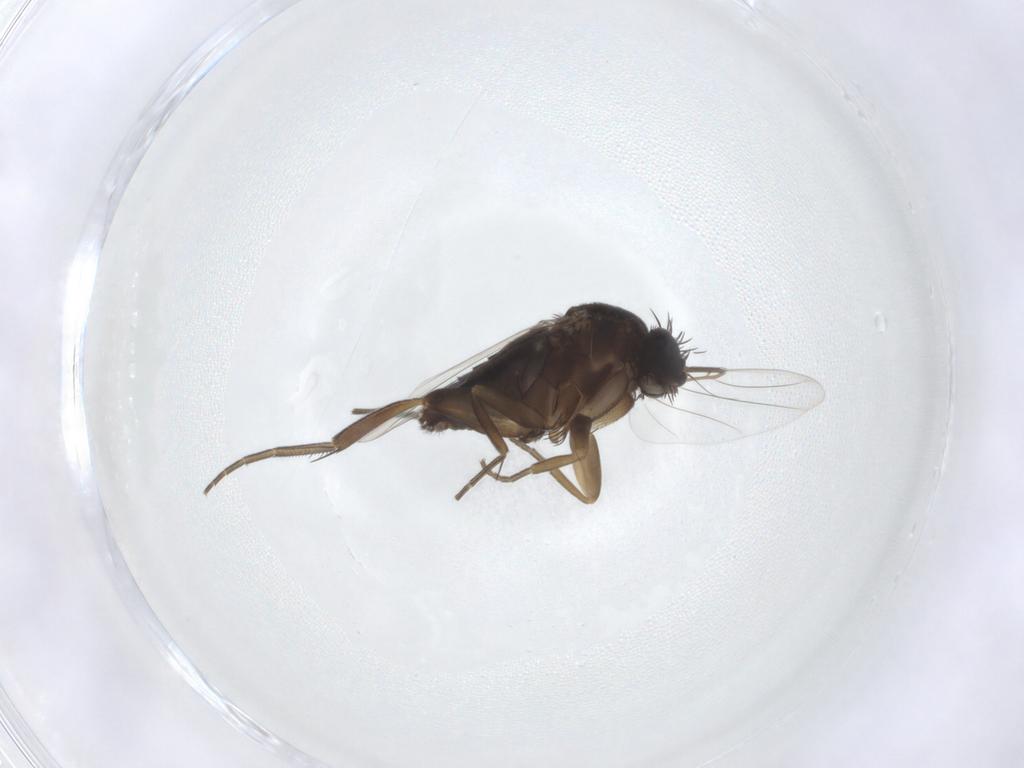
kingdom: Animalia
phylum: Arthropoda
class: Insecta
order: Diptera
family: Phoridae
